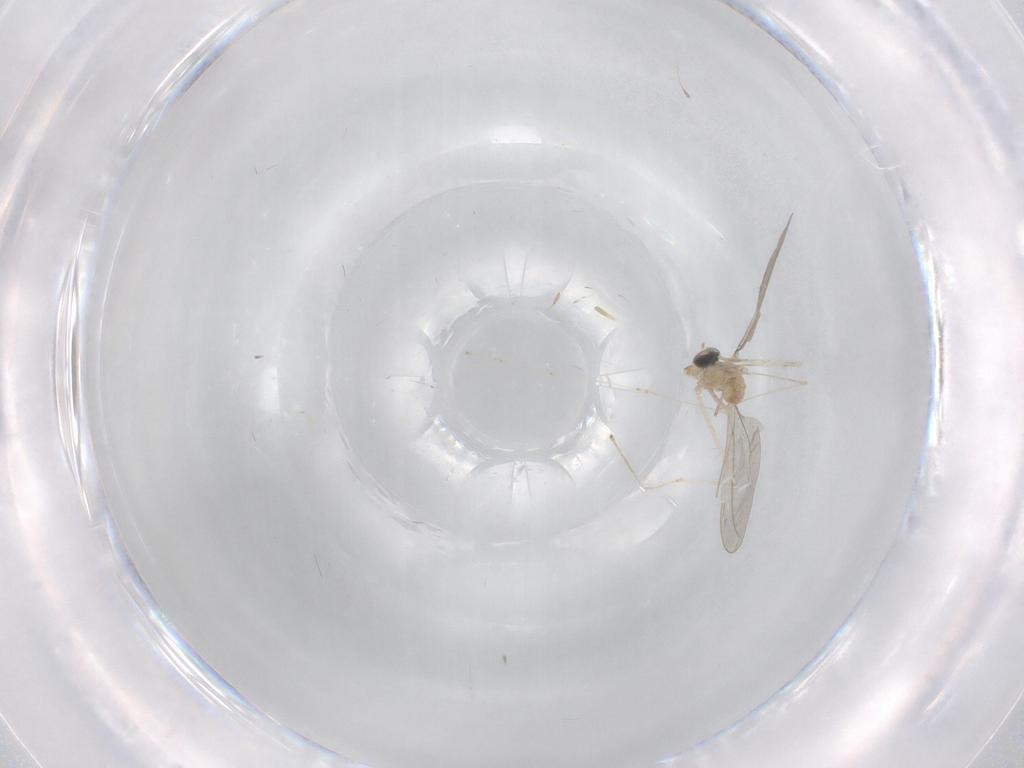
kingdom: Animalia
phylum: Arthropoda
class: Insecta
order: Diptera
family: Cecidomyiidae
